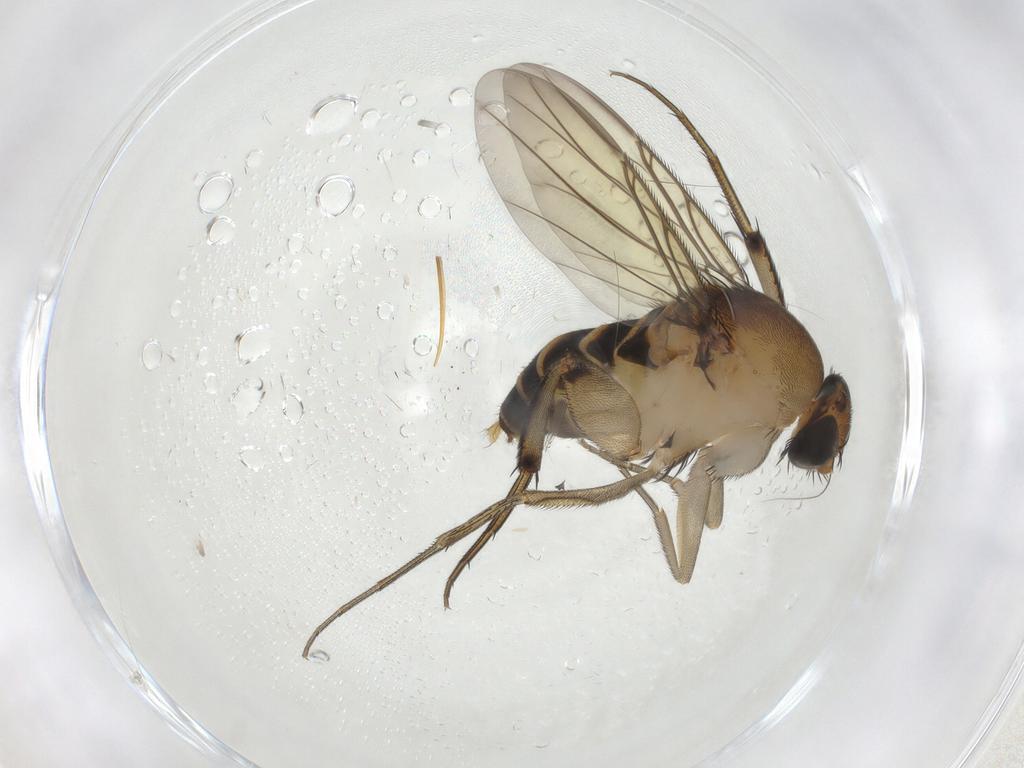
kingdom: Animalia
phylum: Arthropoda
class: Insecta
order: Diptera
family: Phoridae
